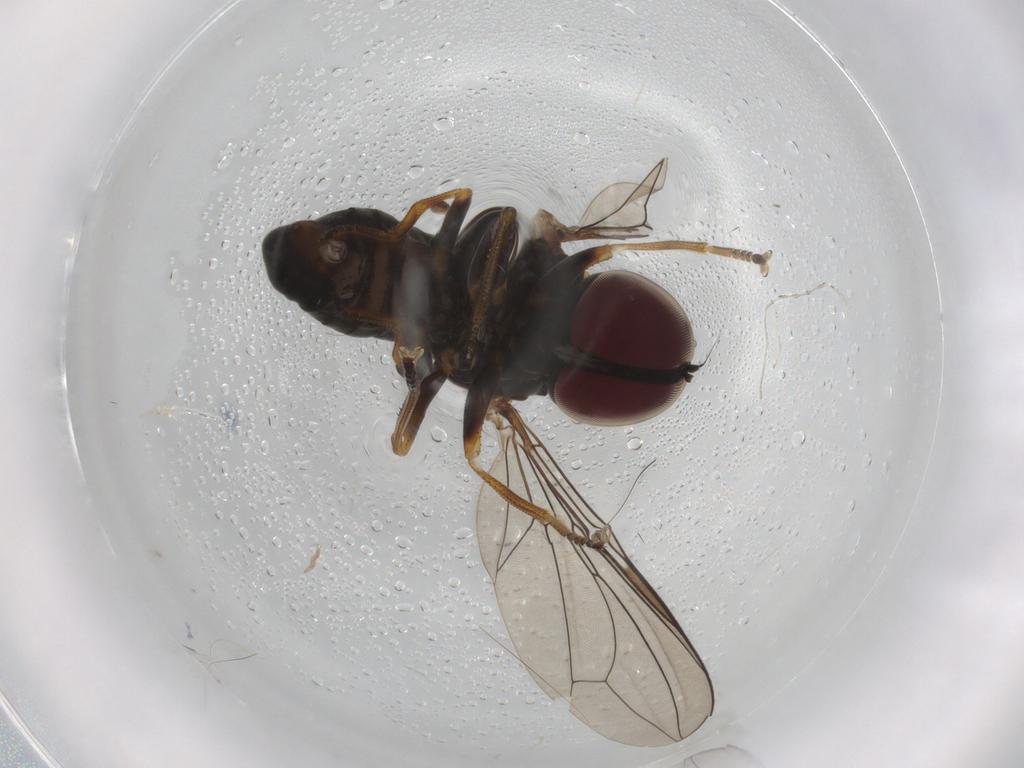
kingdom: Animalia
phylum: Arthropoda
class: Insecta
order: Diptera
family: Pipunculidae
